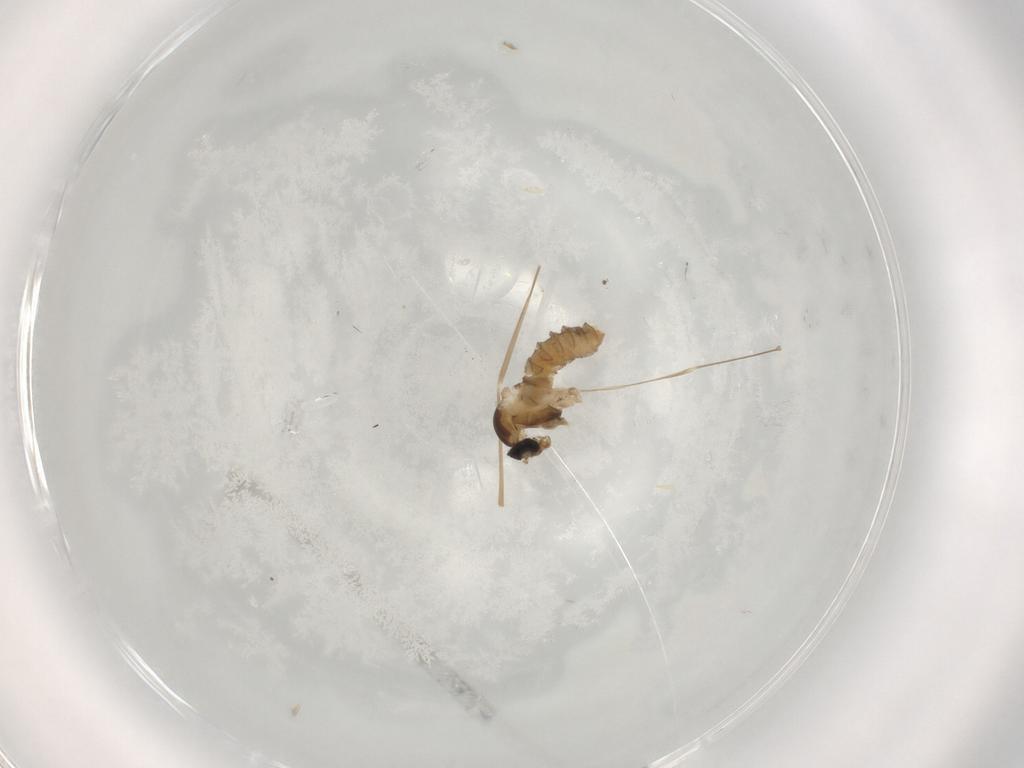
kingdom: Animalia
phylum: Arthropoda
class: Insecta
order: Diptera
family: Cecidomyiidae
